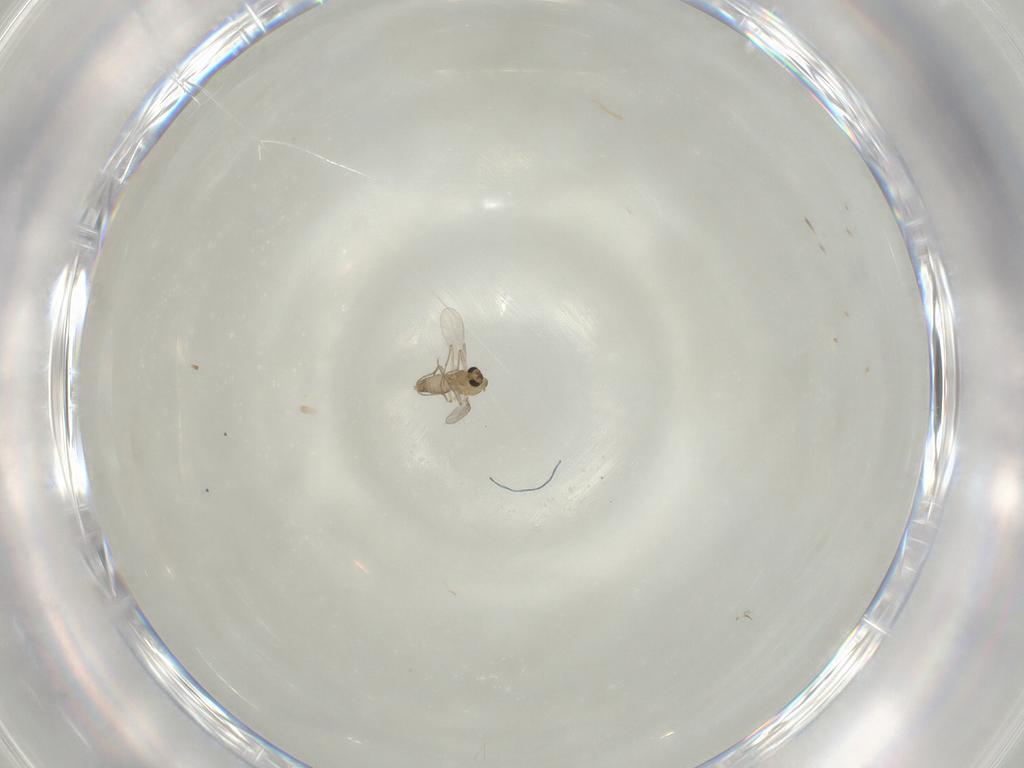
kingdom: Animalia
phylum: Arthropoda
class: Insecta
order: Diptera
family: Chironomidae
